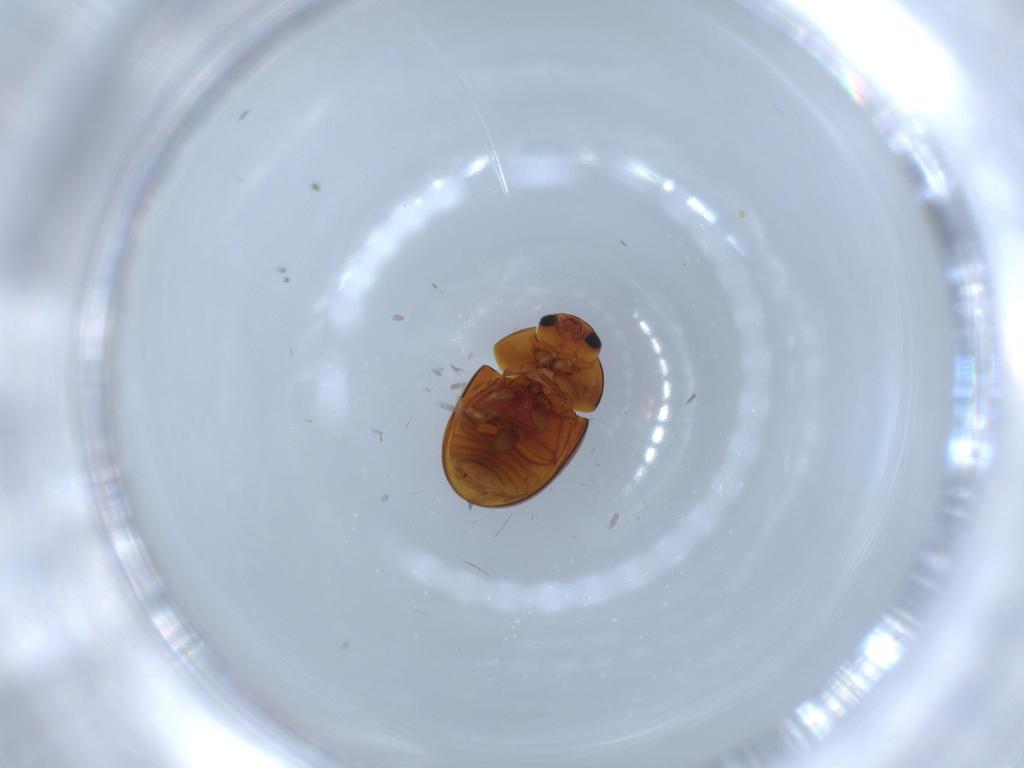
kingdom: Animalia
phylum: Arthropoda
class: Insecta
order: Coleoptera
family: Phalacridae
